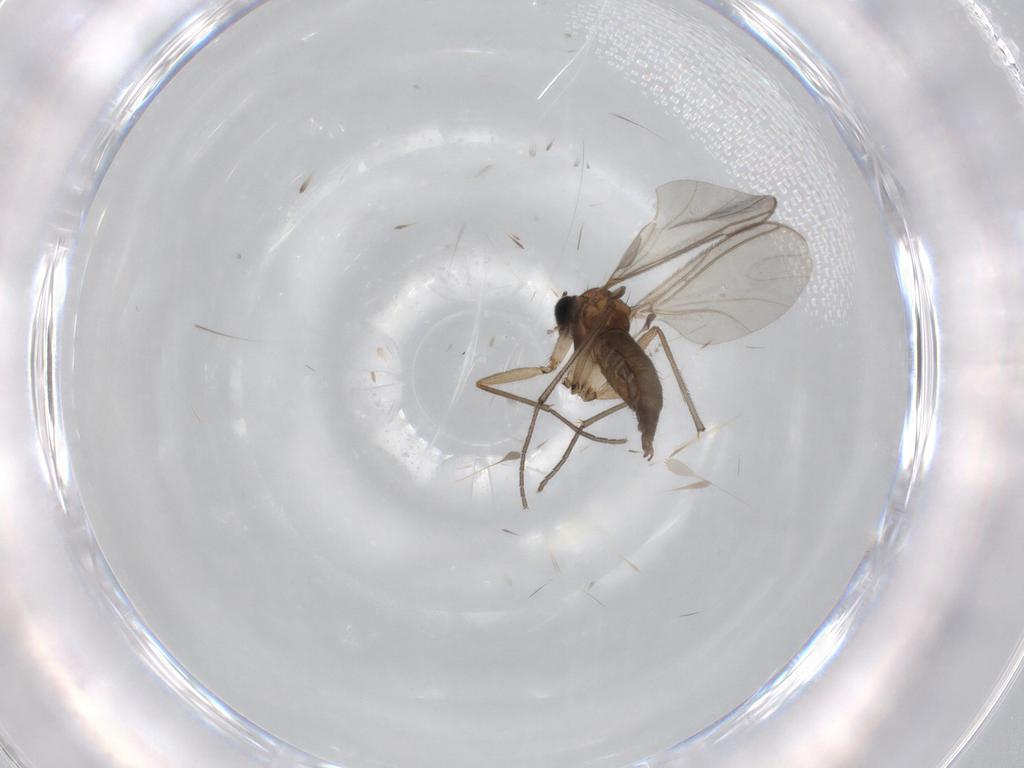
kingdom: Animalia
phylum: Arthropoda
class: Insecta
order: Diptera
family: Sciaridae
